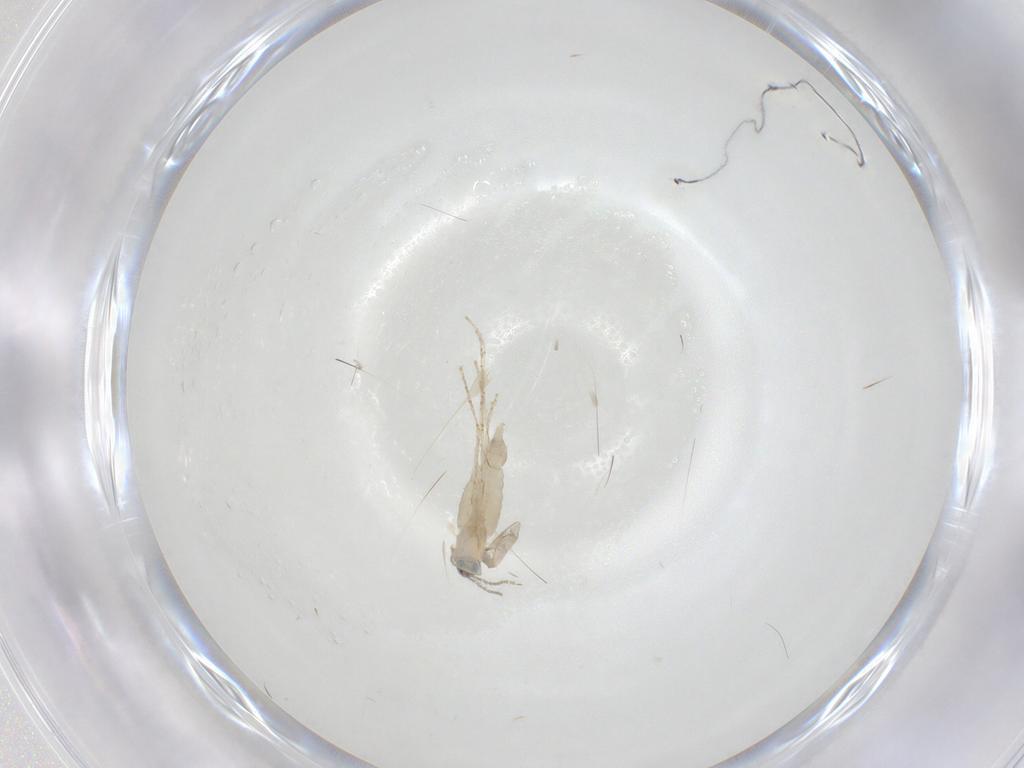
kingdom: Animalia
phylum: Arthropoda
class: Insecta
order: Diptera
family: Cecidomyiidae
